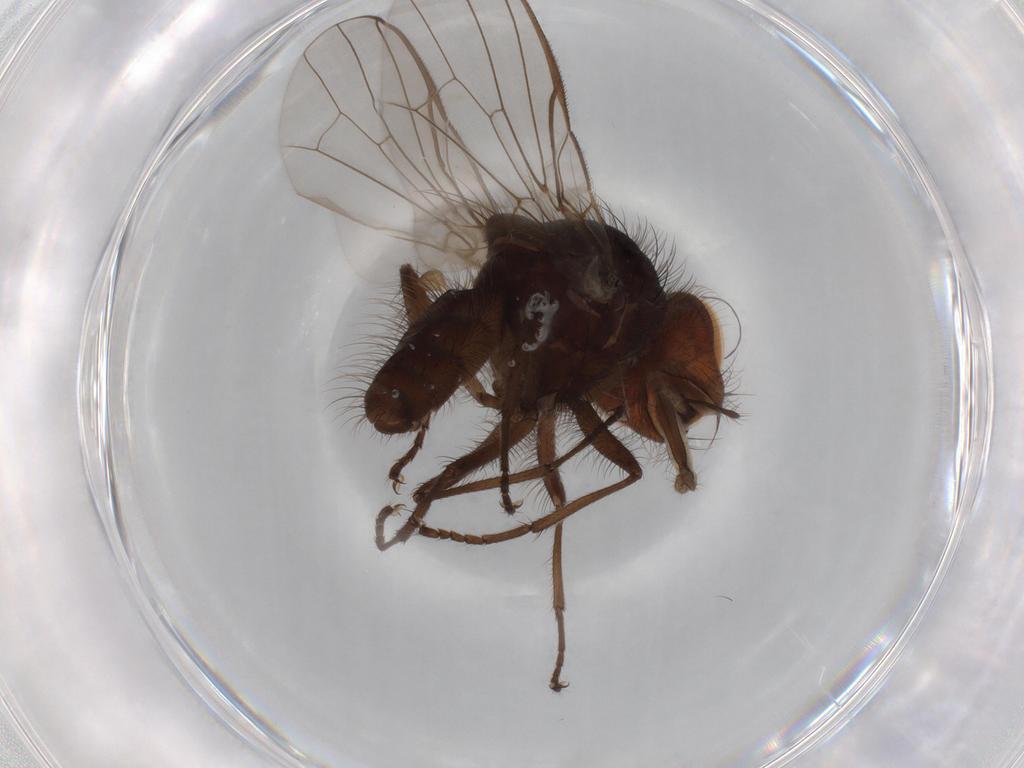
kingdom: Animalia
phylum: Arthropoda
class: Insecta
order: Diptera
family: Anthomyiidae
